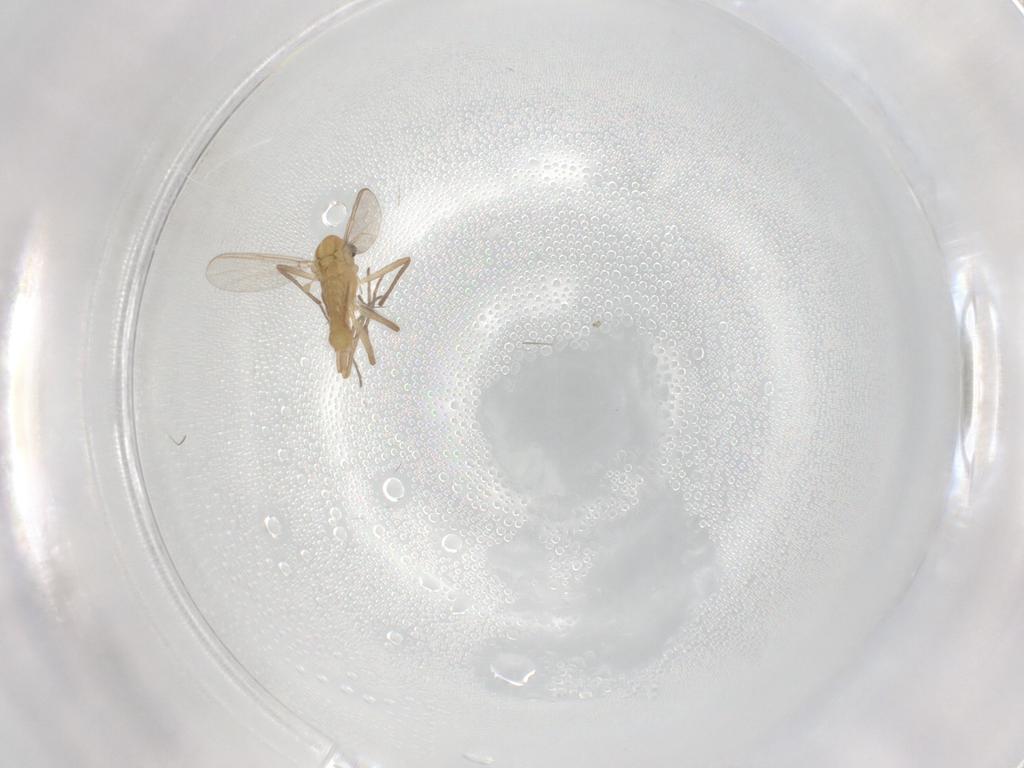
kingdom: Animalia
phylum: Arthropoda
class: Insecta
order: Diptera
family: Chironomidae
